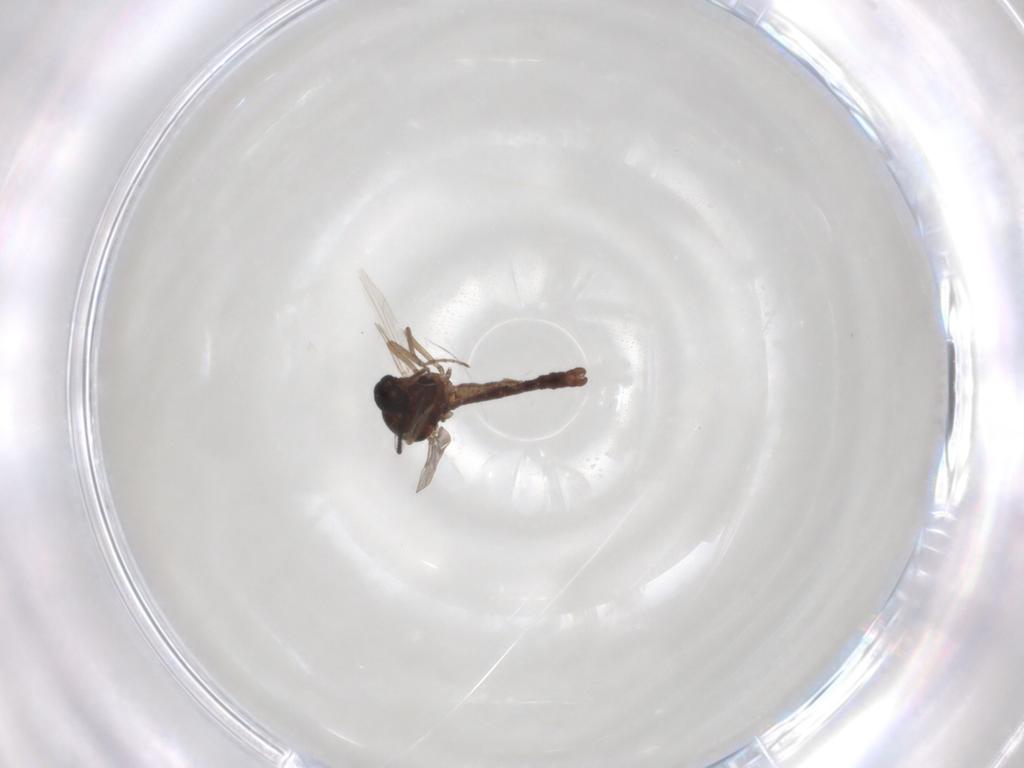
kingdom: Animalia
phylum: Arthropoda
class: Insecta
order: Diptera
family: Ceratopogonidae
